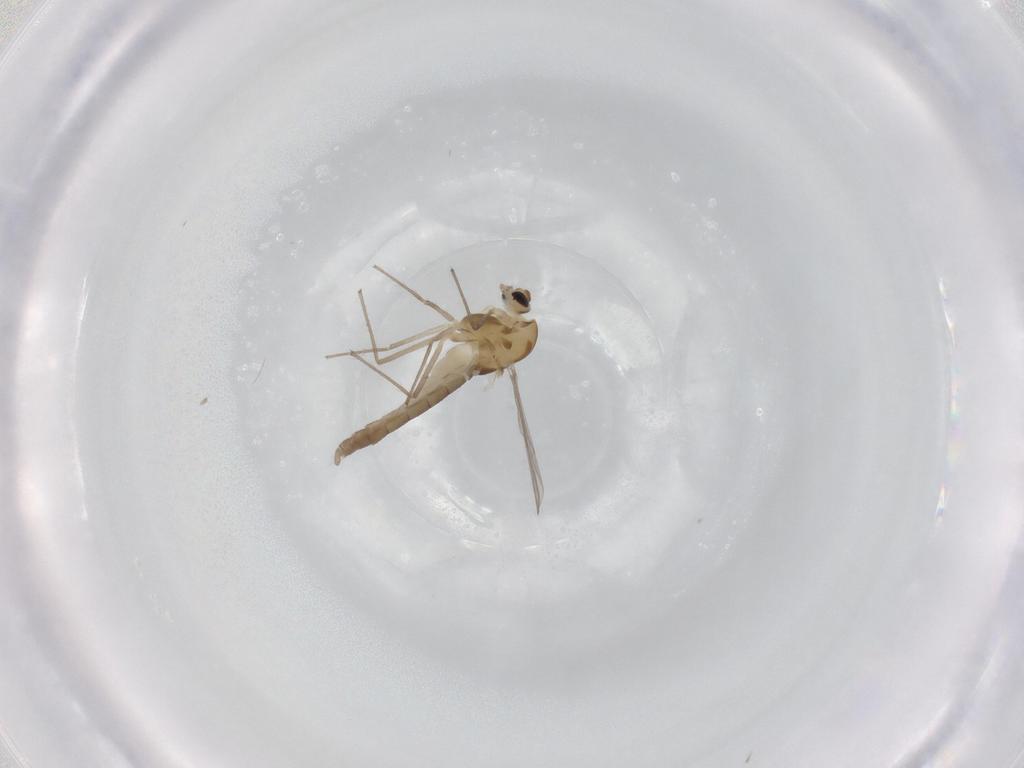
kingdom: Animalia
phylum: Arthropoda
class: Insecta
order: Diptera
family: Chironomidae
